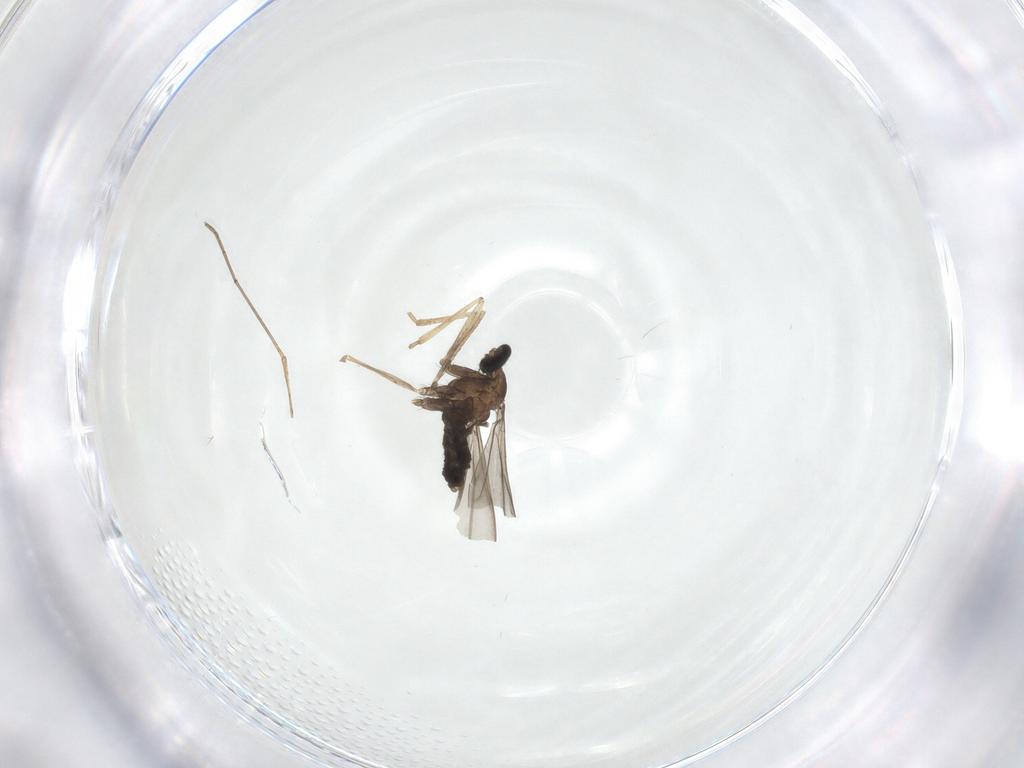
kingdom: Animalia
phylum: Arthropoda
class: Insecta
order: Diptera
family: Cecidomyiidae
